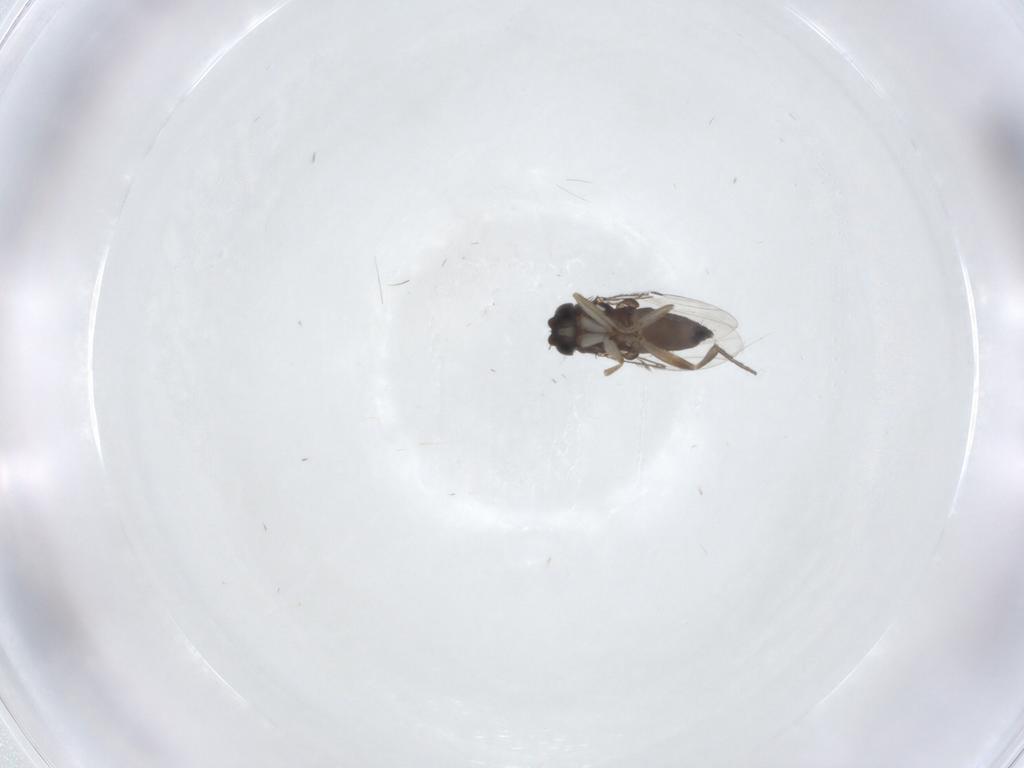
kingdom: Animalia
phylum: Arthropoda
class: Insecta
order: Diptera
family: Phoridae
